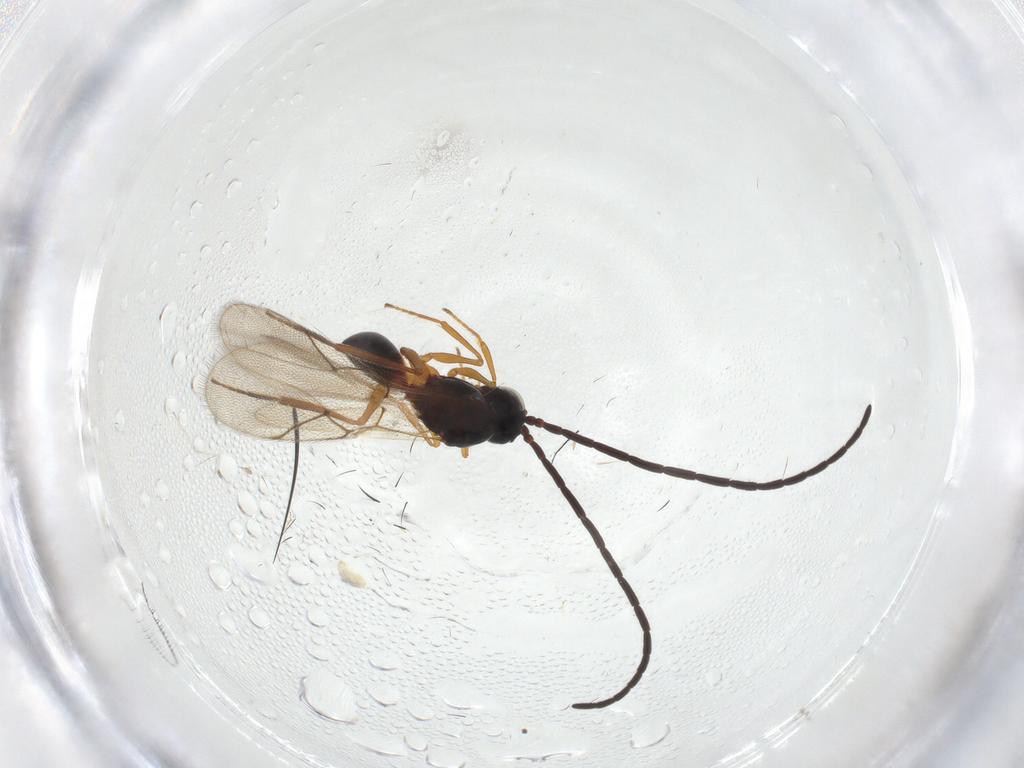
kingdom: Animalia
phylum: Arthropoda
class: Insecta
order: Hymenoptera
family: Figitidae
